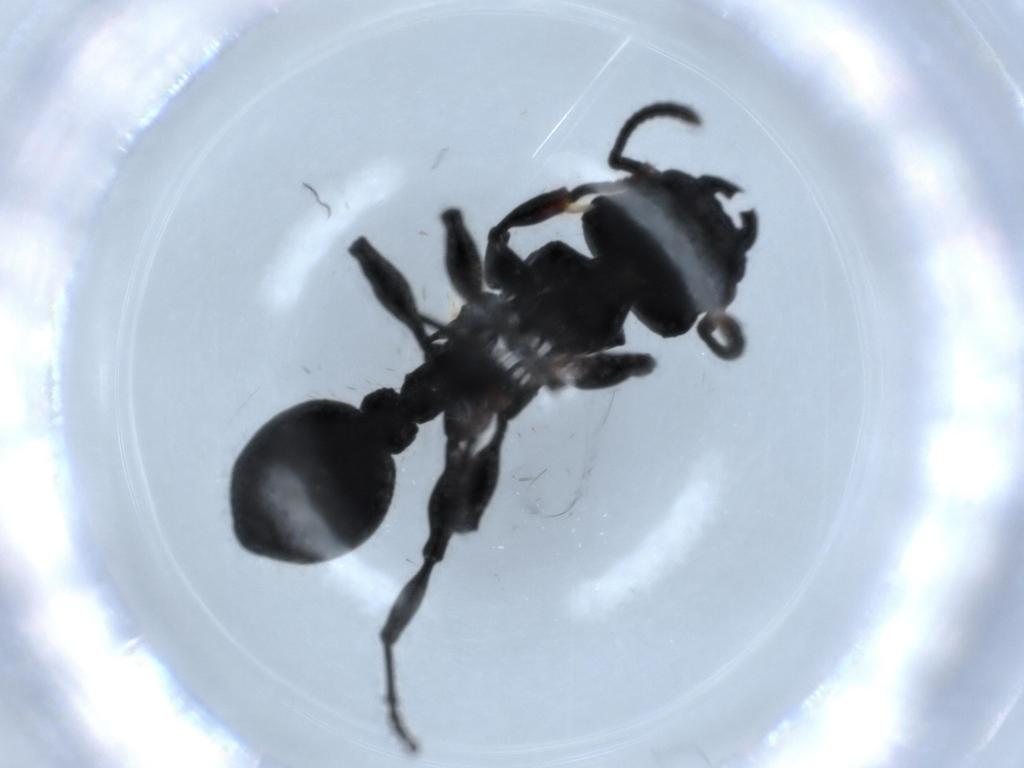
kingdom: Animalia
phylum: Arthropoda
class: Insecta
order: Hymenoptera
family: Formicidae
